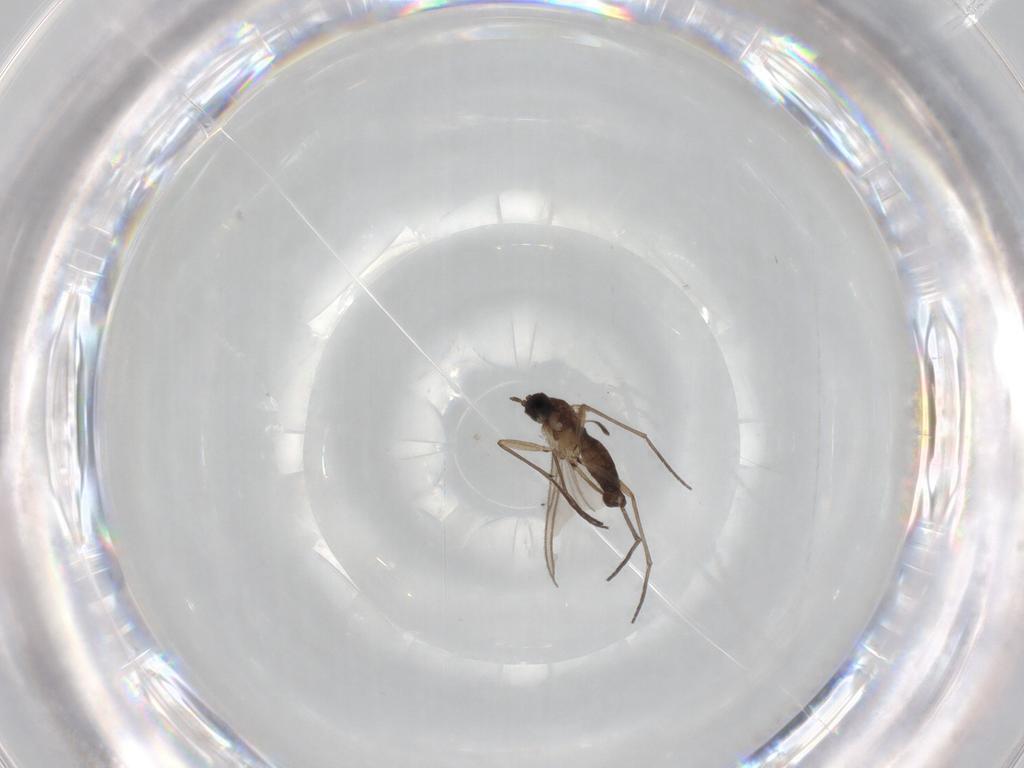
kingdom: Animalia
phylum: Arthropoda
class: Insecta
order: Diptera
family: Sciaridae
